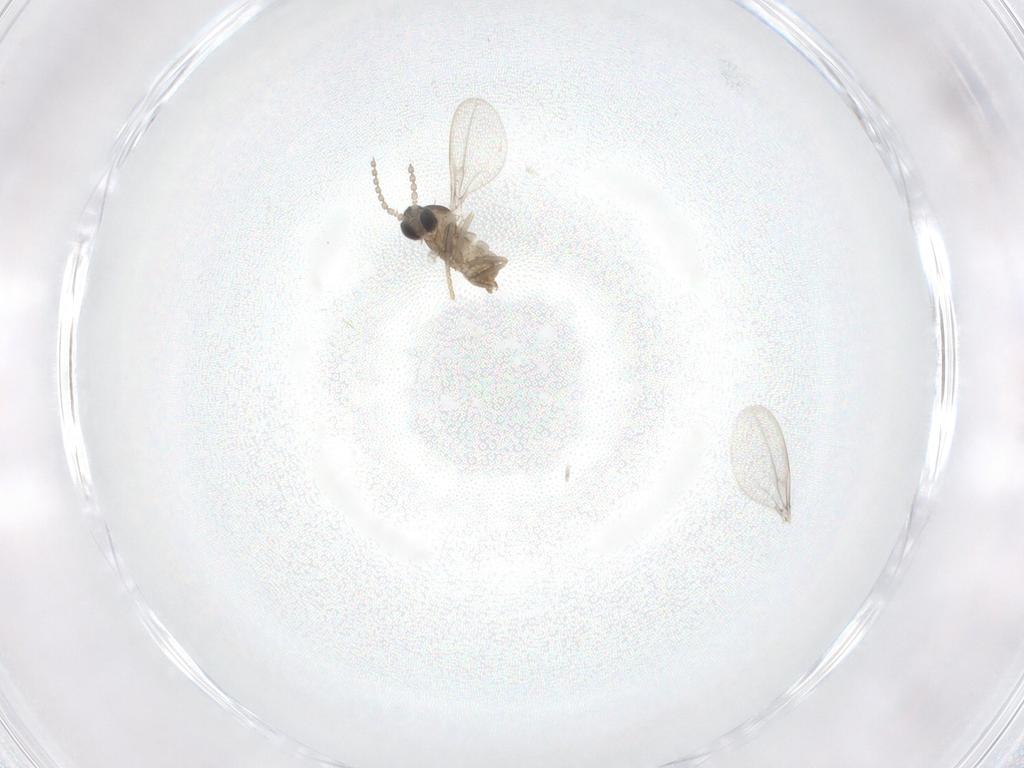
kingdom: Animalia
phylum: Arthropoda
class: Insecta
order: Diptera
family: Cecidomyiidae
